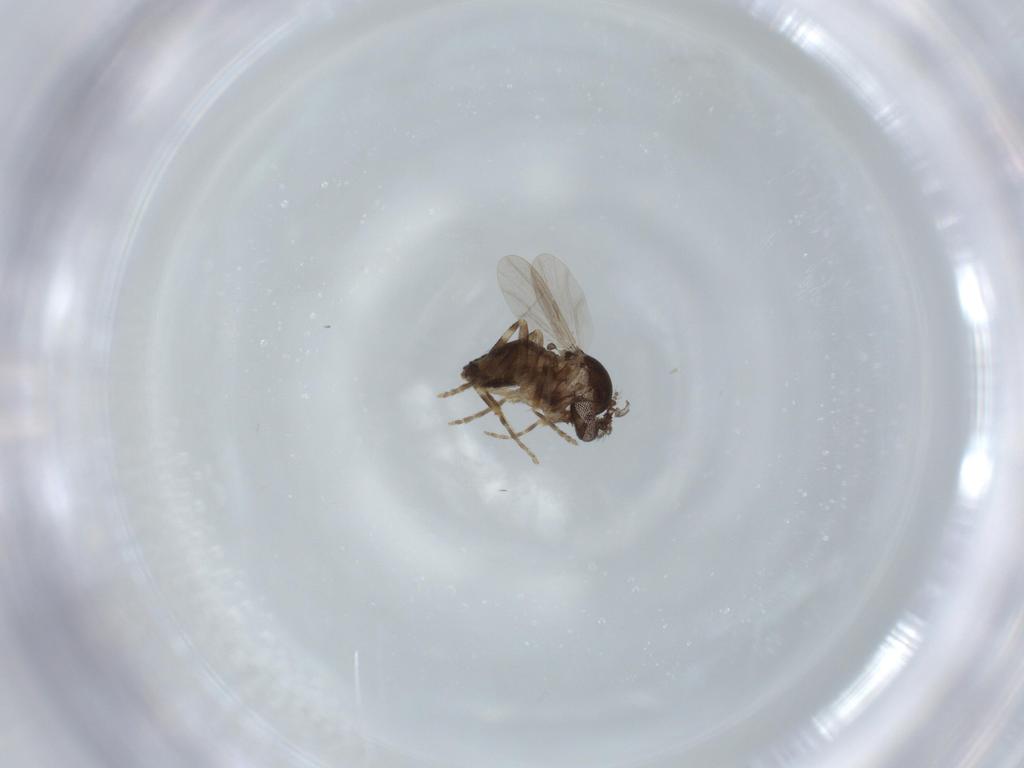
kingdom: Animalia
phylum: Arthropoda
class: Insecta
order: Diptera
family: Ceratopogonidae
